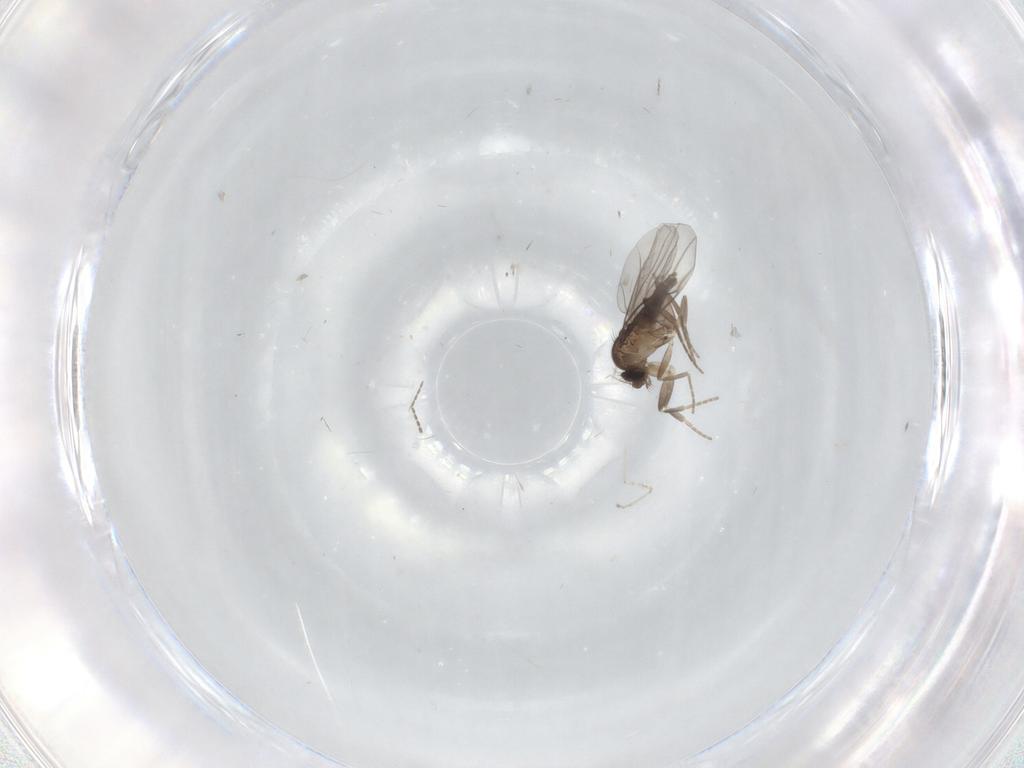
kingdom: Animalia
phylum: Arthropoda
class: Insecta
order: Diptera
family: Cecidomyiidae
